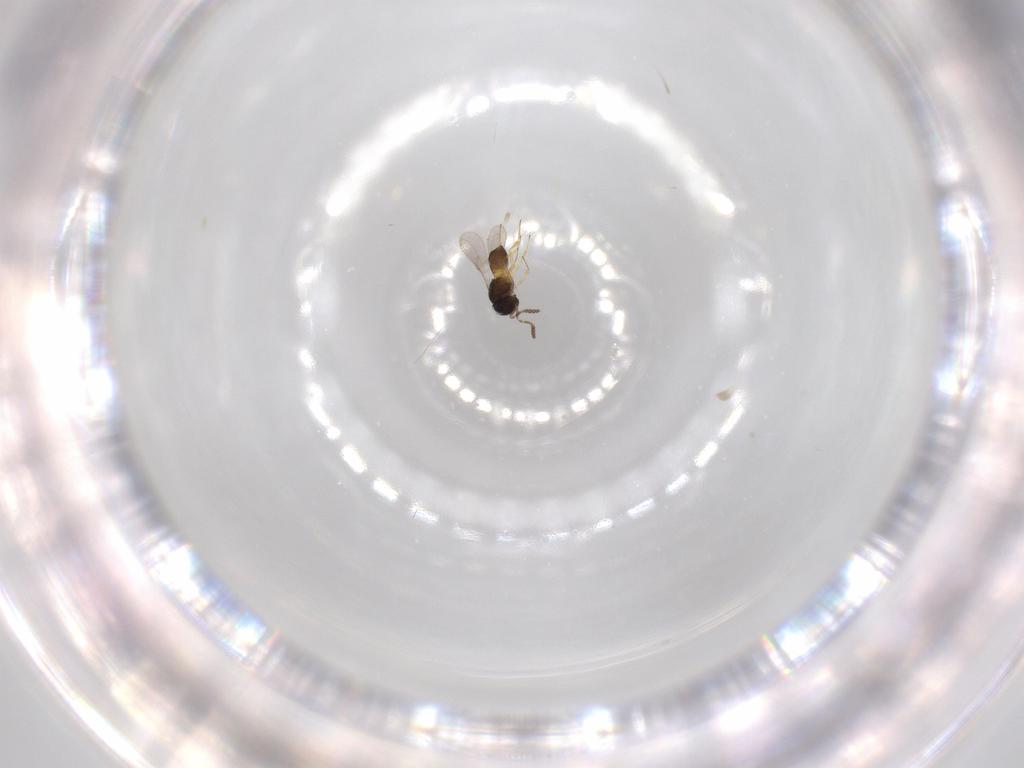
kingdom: Animalia
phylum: Arthropoda
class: Insecta
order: Hymenoptera
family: Scelionidae
